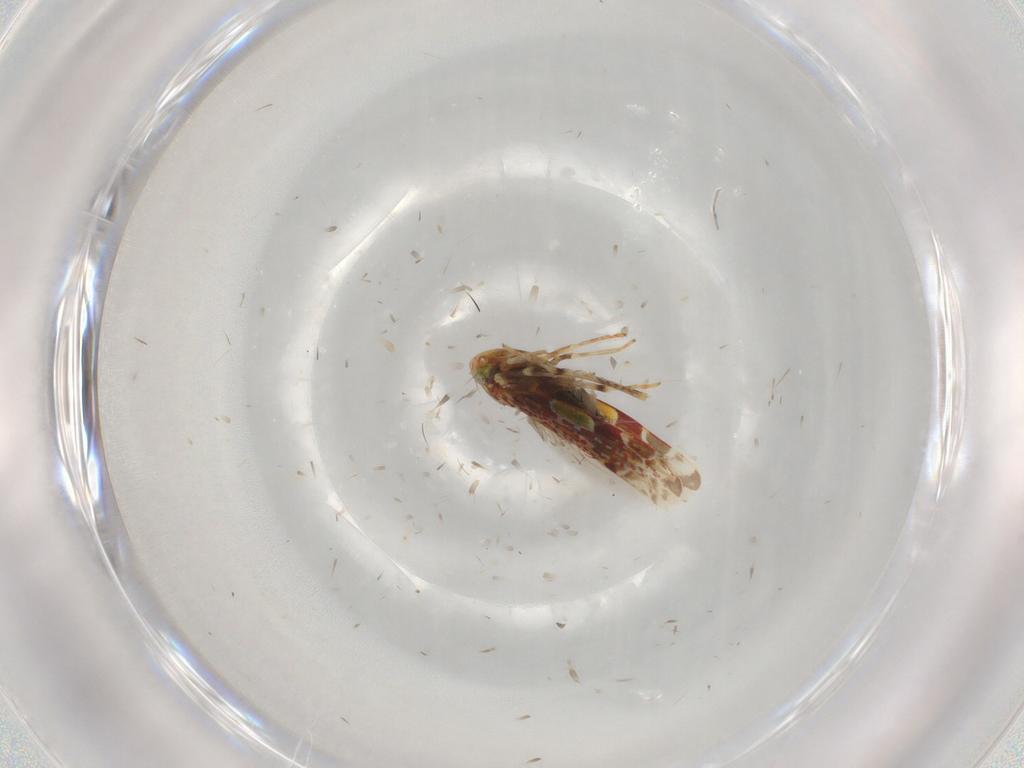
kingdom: Animalia
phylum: Arthropoda
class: Insecta
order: Hemiptera
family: Cicadellidae
